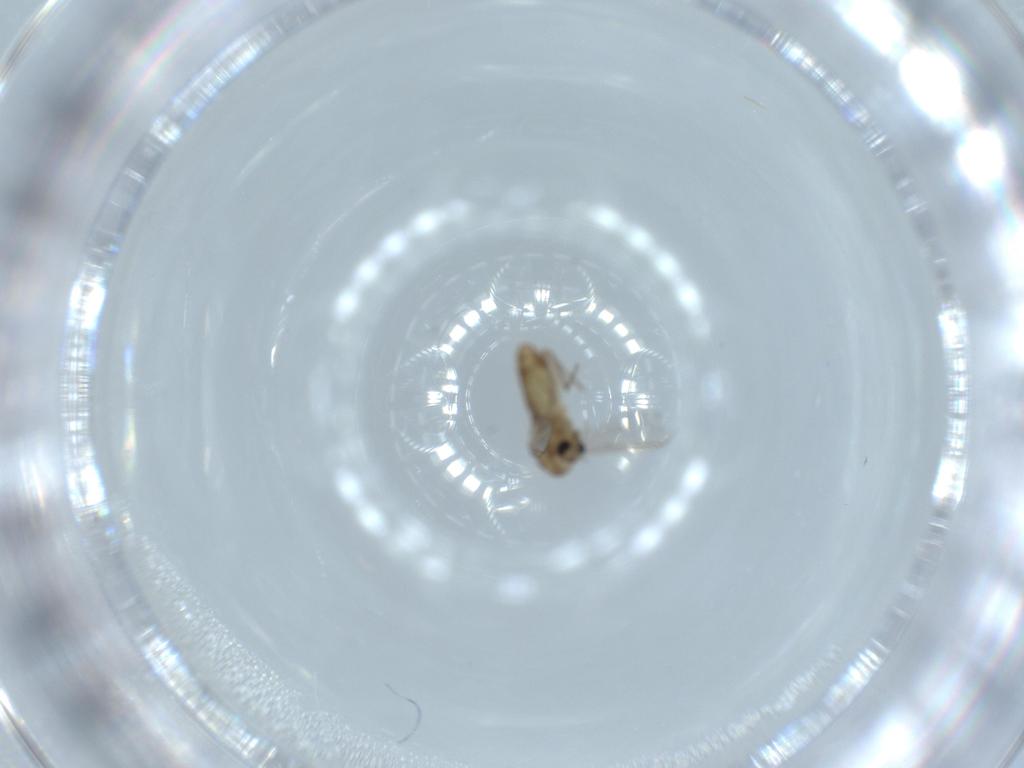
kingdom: Animalia
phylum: Arthropoda
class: Insecta
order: Diptera
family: Chironomidae
